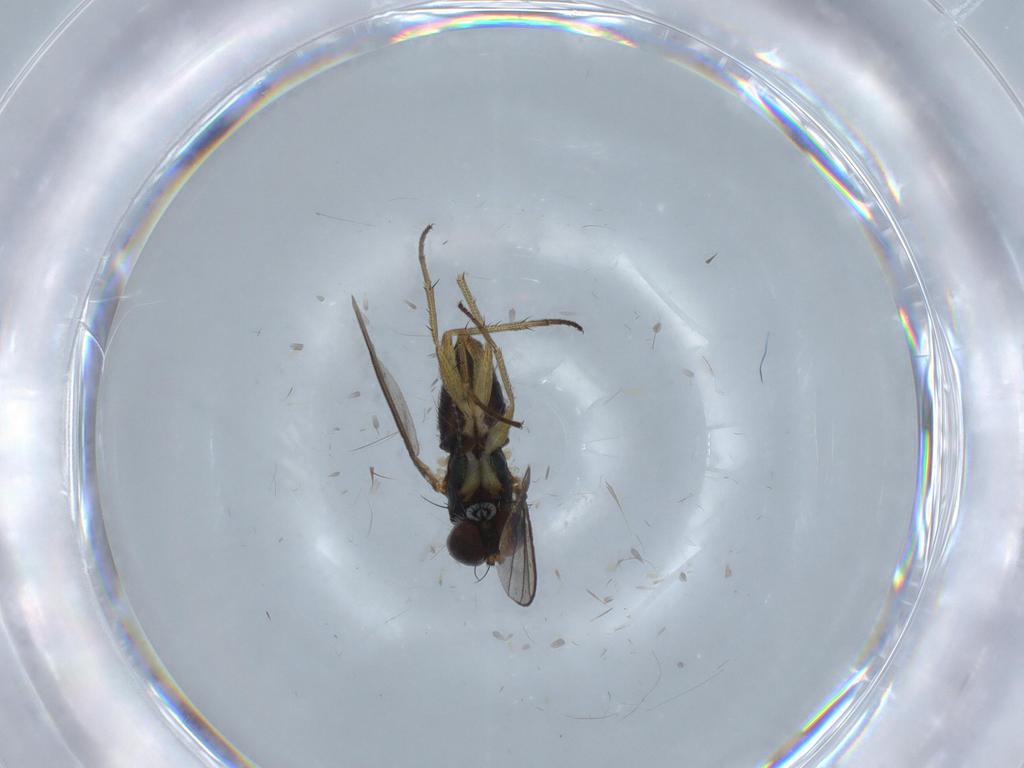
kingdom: Animalia
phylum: Arthropoda
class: Insecta
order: Diptera
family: Psychodidae
